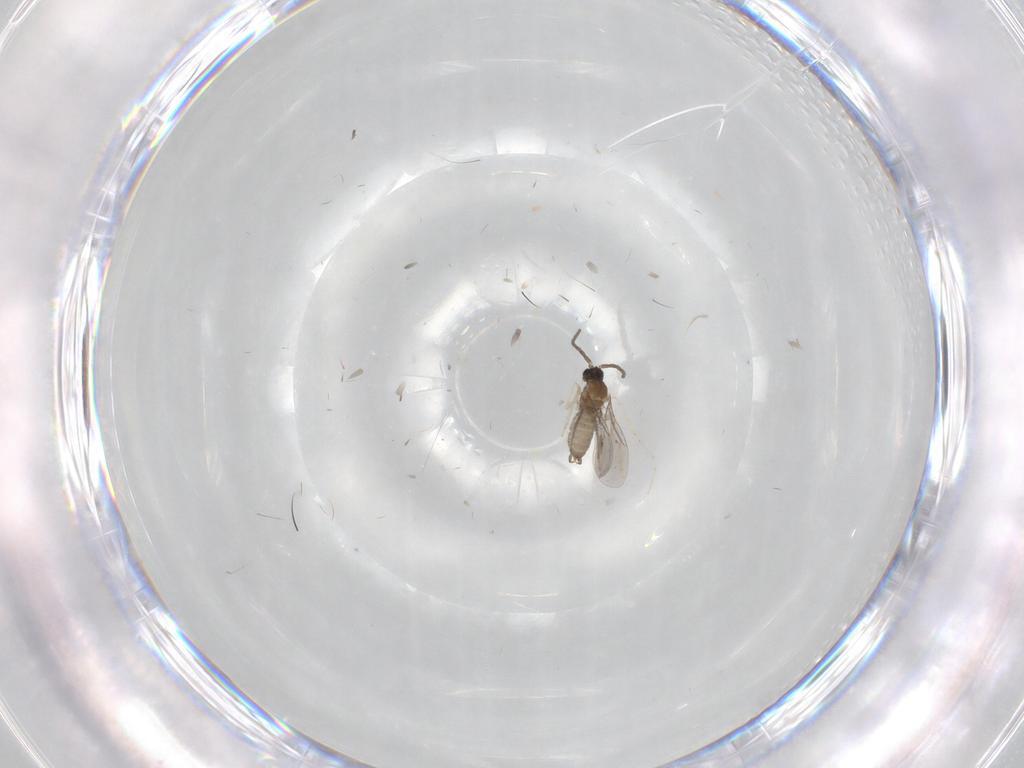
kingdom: Animalia
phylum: Arthropoda
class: Insecta
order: Diptera
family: Cecidomyiidae
